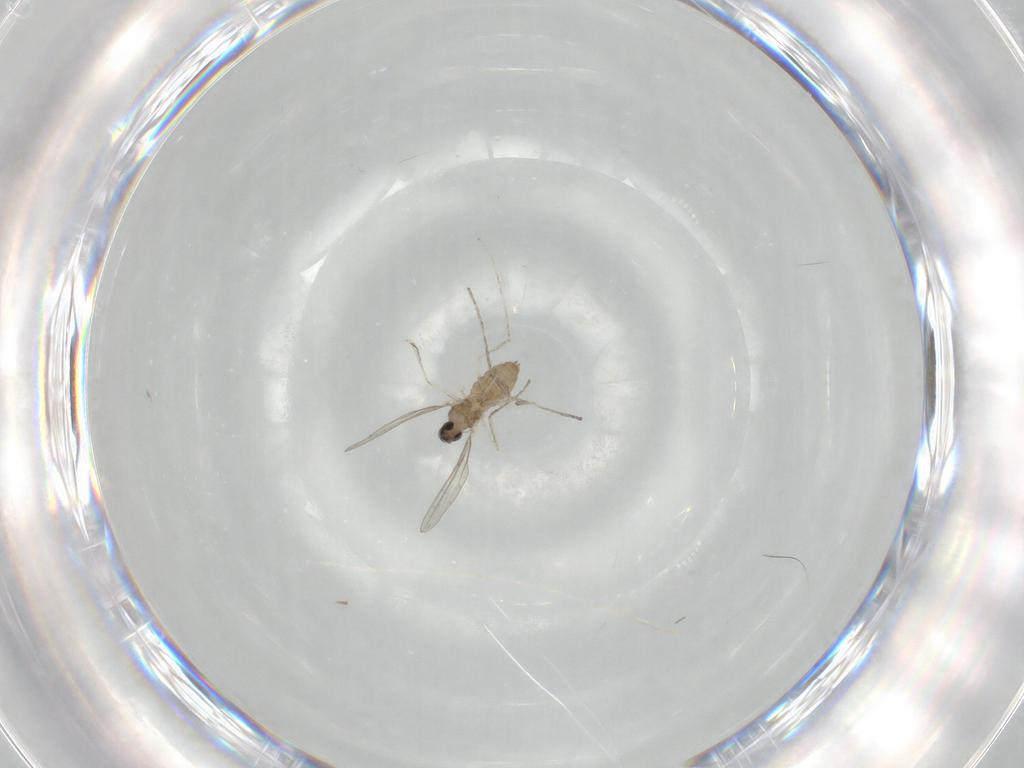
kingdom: Animalia
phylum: Arthropoda
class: Insecta
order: Diptera
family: Cecidomyiidae
